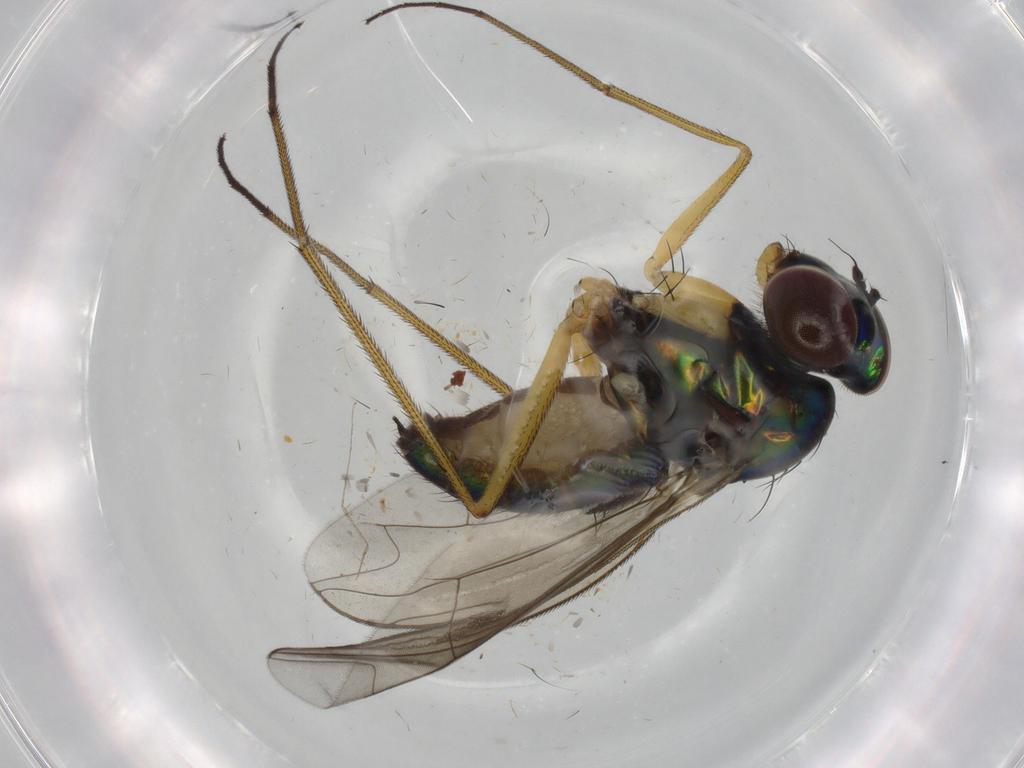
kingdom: Animalia
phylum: Arthropoda
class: Insecta
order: Diptera
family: Dolichopodidae
